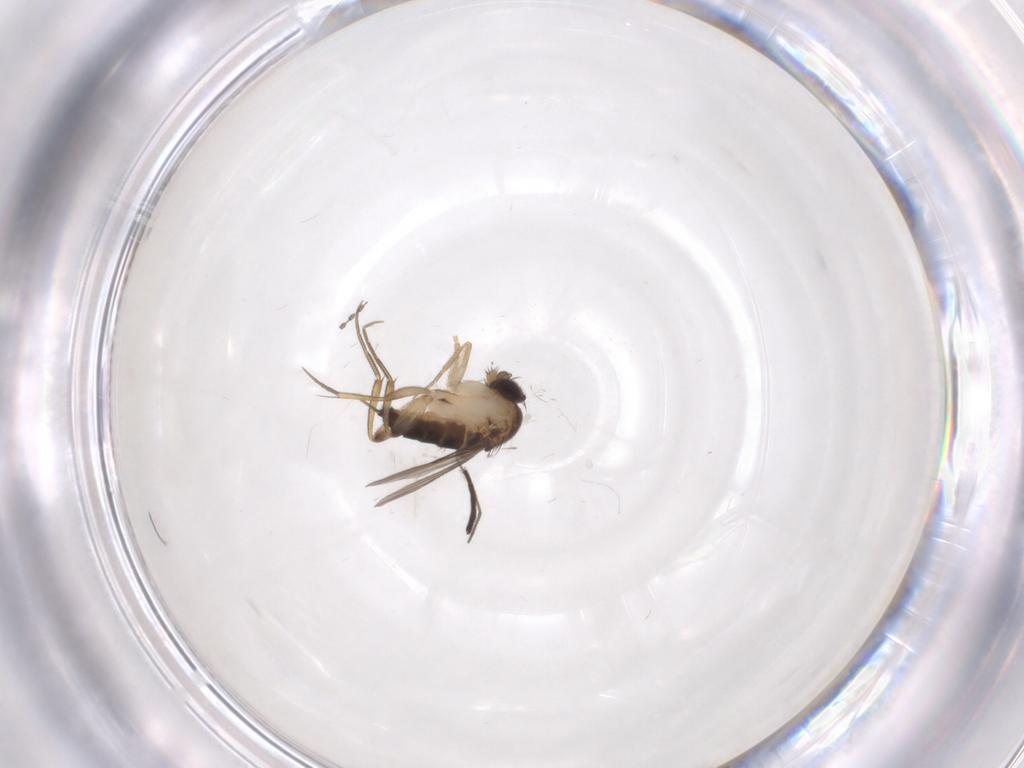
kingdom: Animalia
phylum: Arthropoda
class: Insecta
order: Diptera
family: Phoridae
